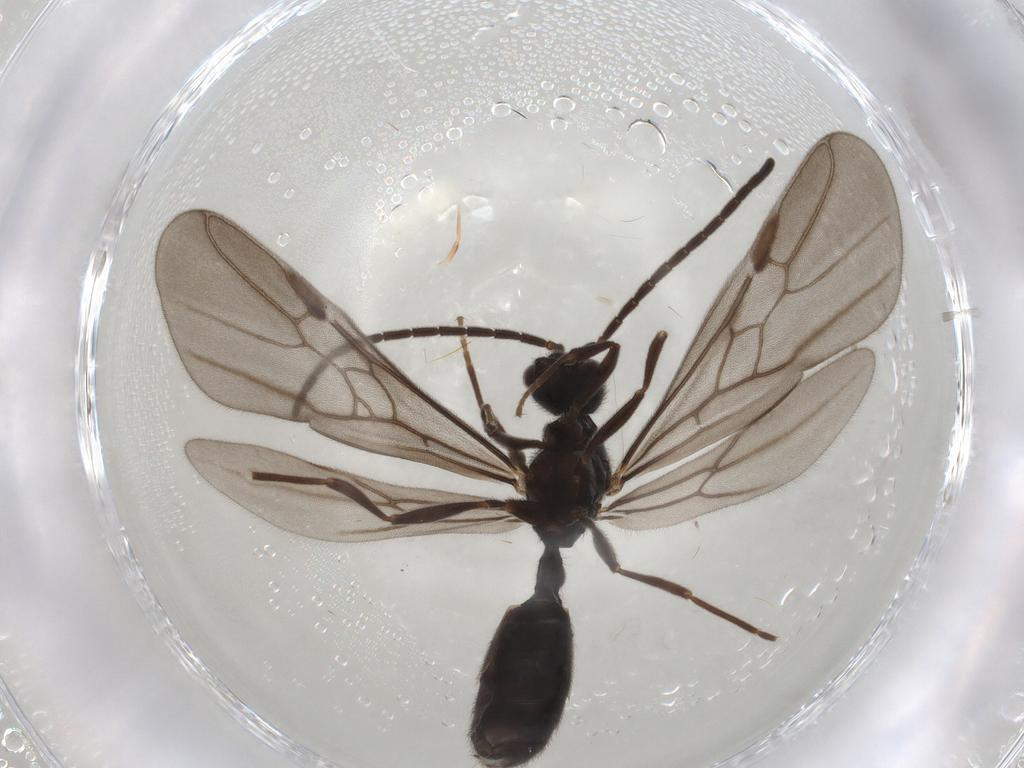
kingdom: Animalia
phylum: Arthropoda
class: Insecta
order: Hymenoptera
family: Formicidae
